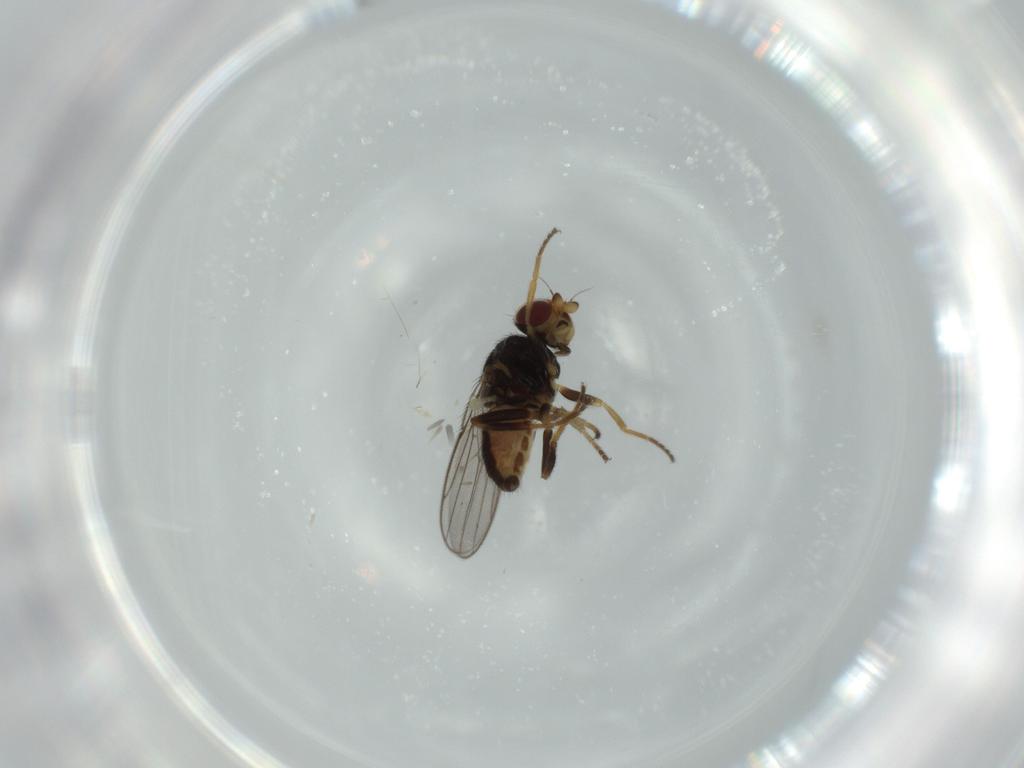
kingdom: Animalia
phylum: Arthropoda
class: Insecta
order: Diptera
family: Chloropidae
